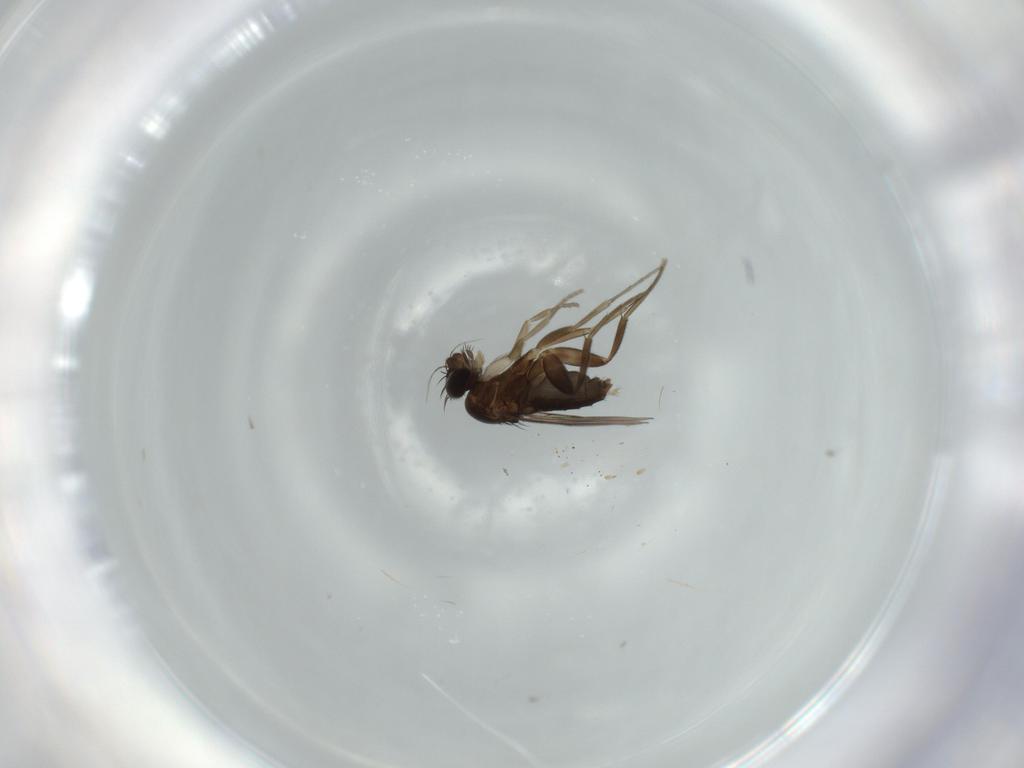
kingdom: Animalia
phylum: Arthropoda
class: Insecta
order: Diptera
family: Phoridae
